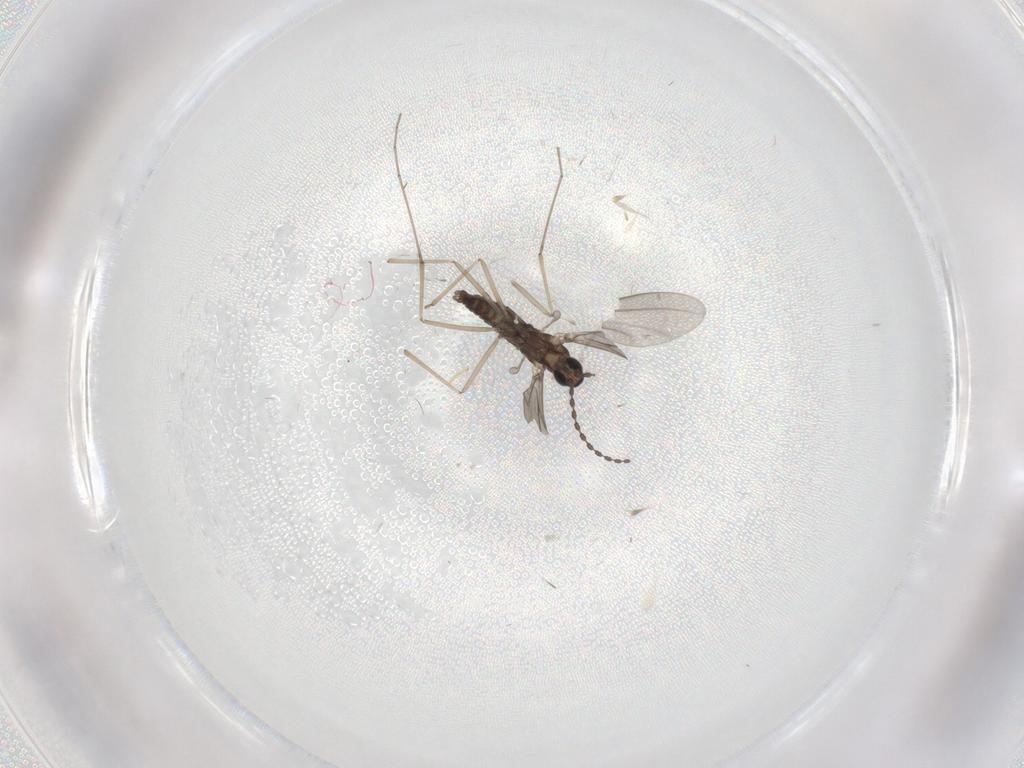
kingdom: Animalia
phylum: Arthropoda
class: Insecta
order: Diptera
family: Cecidomyiidae
